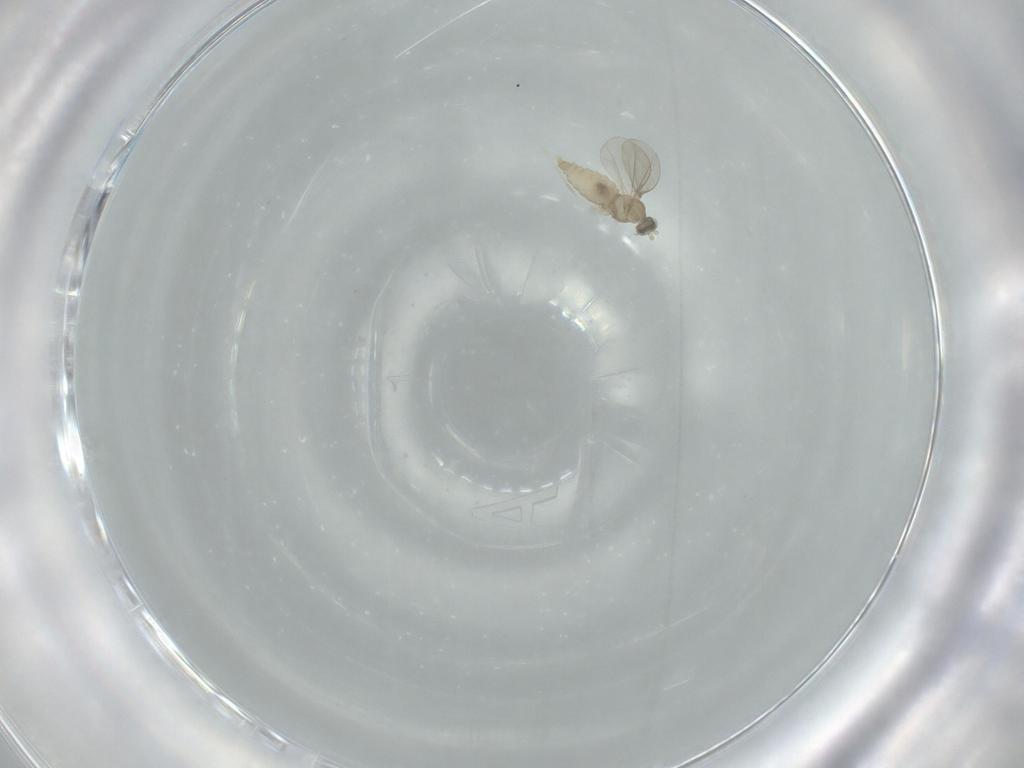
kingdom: Animalia
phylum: Arthropoda
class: Insecta
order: Diptera
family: Cecidomyiidae
